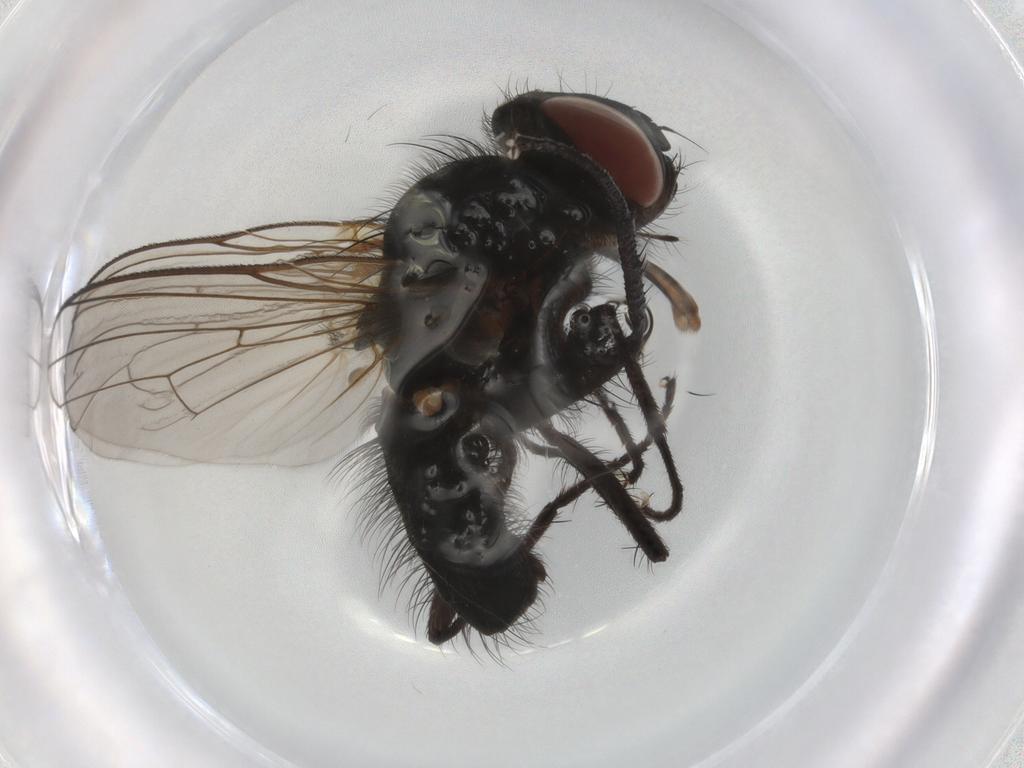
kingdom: Animalia
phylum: Arthropoda
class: Insecta
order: Diptera
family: Anthomyiidae
